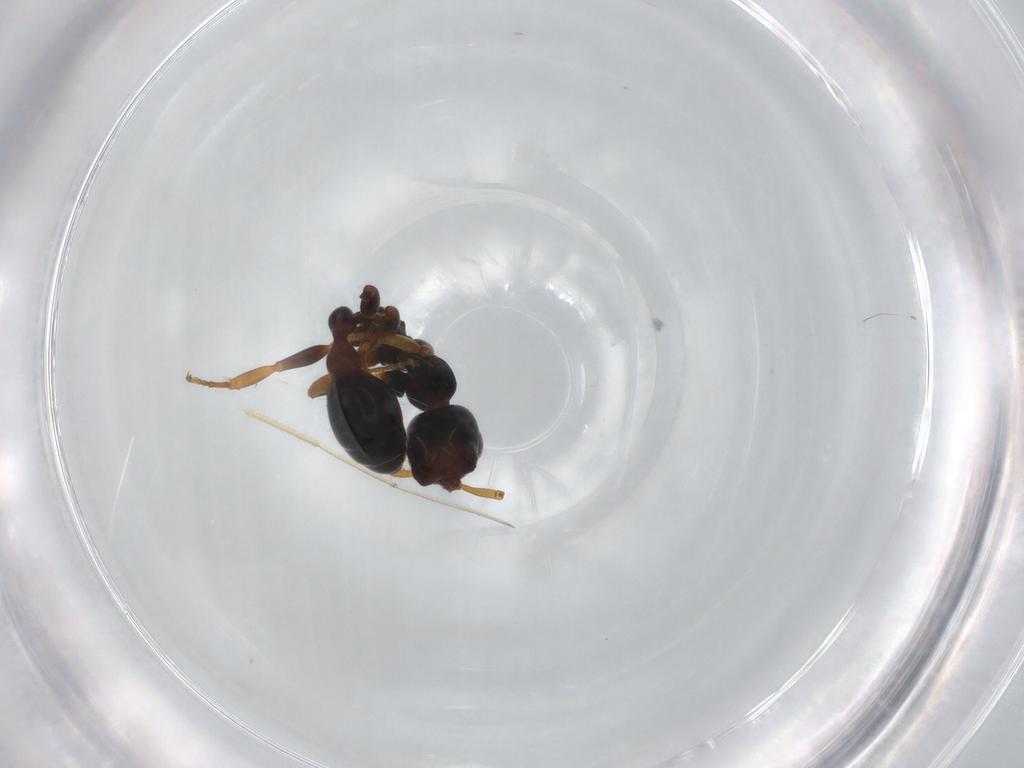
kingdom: Animalia
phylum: Arthropoda
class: Insecta
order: Hymenoptera
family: Formicidae
